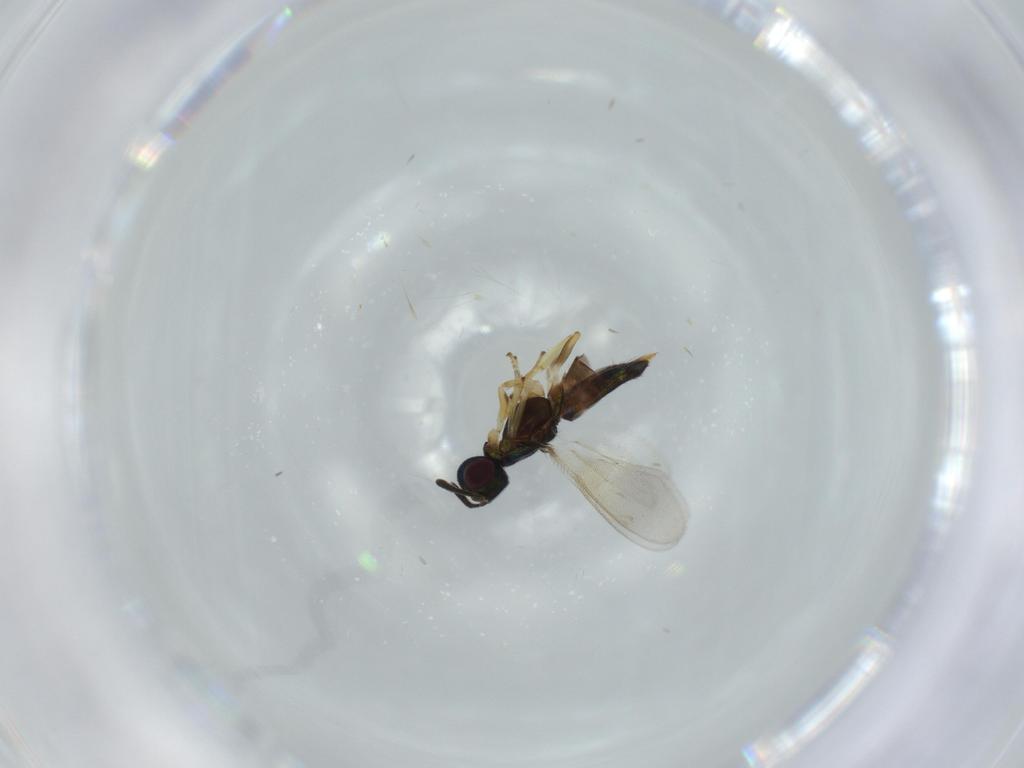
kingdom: Animalia
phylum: Arthropoda
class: Insecta
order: Hymenoptera
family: Eupelmidae
